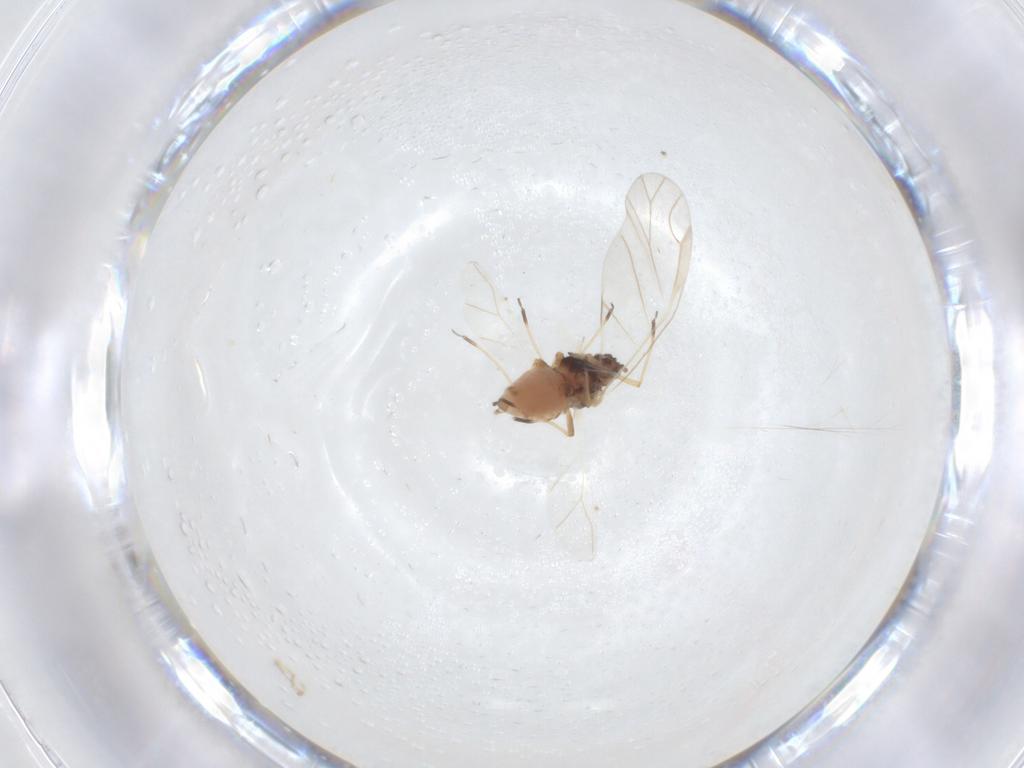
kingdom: Animalia
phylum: Arthropoda
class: Insecta
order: Hemiptera
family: Aphididae
